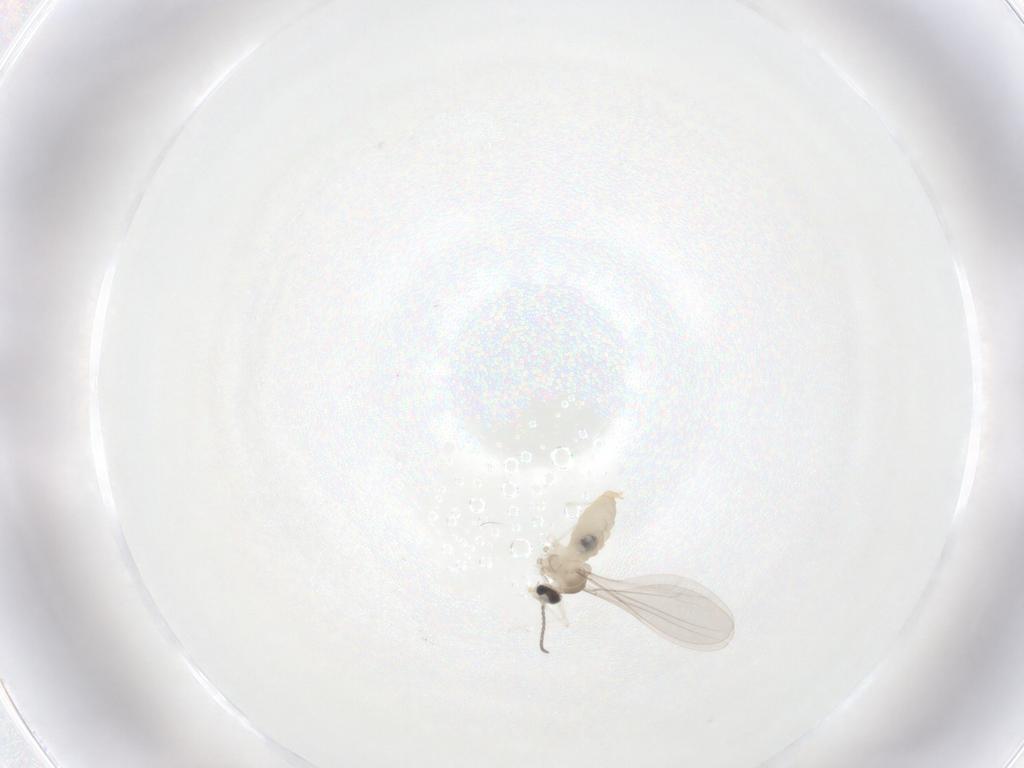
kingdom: Animalia
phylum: Arthropoda
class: Insecta
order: Diptera
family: Cecidomyiidae
